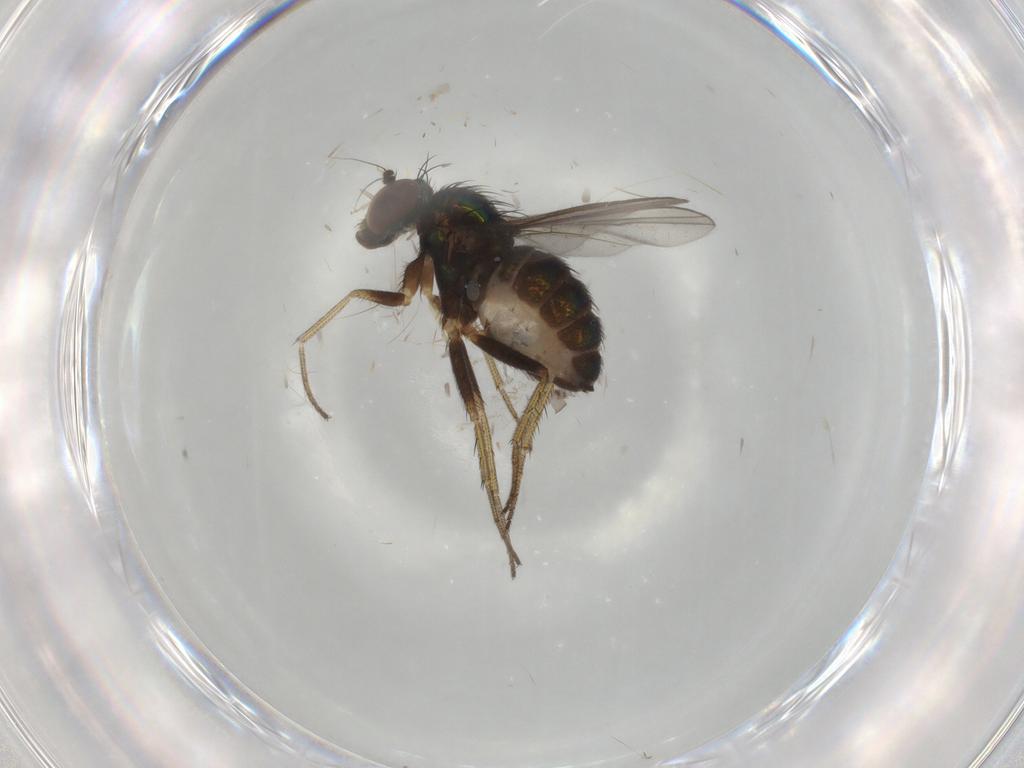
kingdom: Animalia
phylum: Arthropoda
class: Insecta
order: Diptera
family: Dolichopodidae
